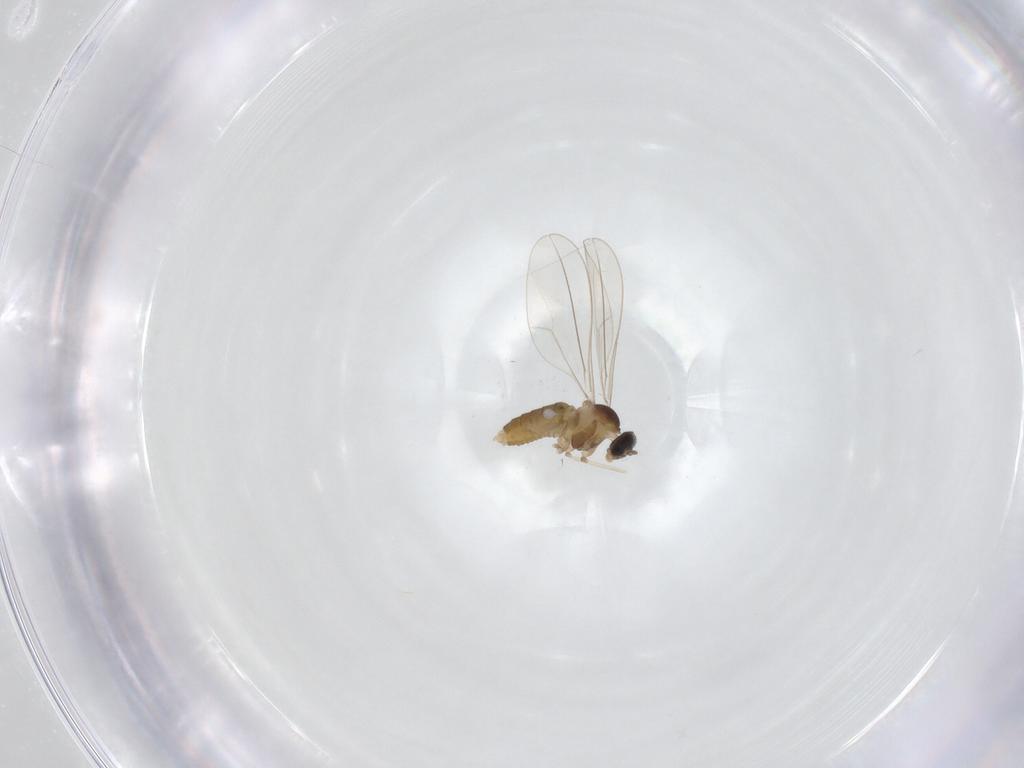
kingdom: Animalia
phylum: Arthropoda
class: Insecta
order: Diptera
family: Cecidomyiidae
